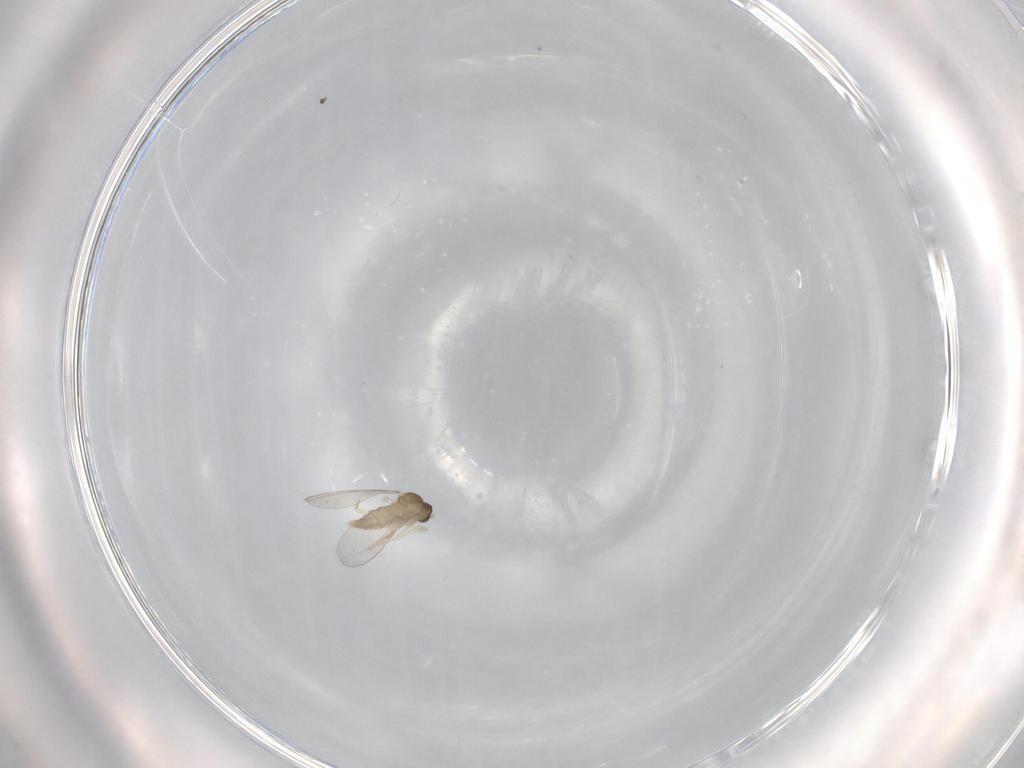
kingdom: Animalia
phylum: Arthropoda
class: Insecta
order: Diptera
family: Cecidomyiidae
